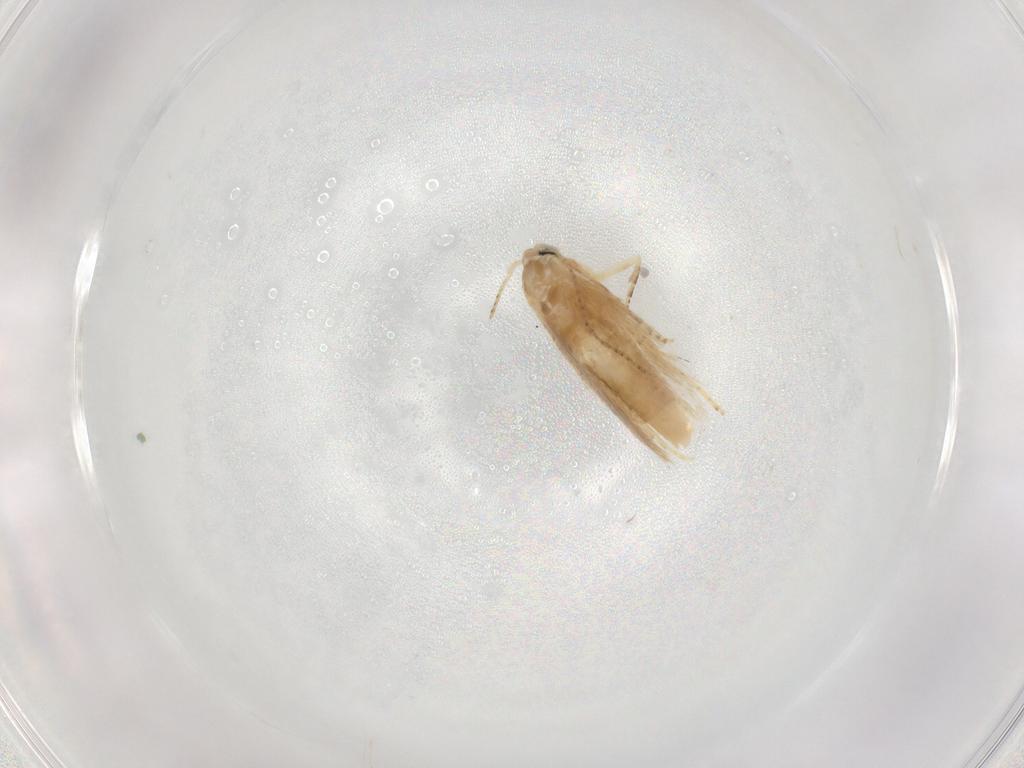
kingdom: Animalia
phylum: Arthropoda
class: Insecta
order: Lepidoptera
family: Depressariidae
